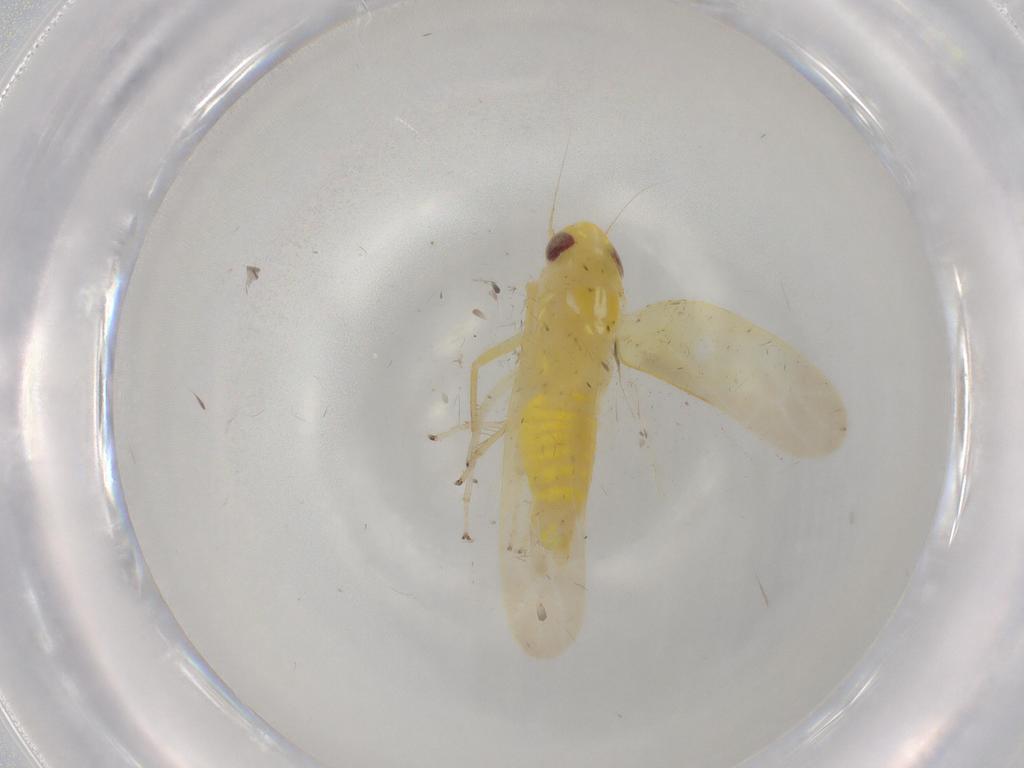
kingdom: Animalia
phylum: Arthropoda
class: Insecta
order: Hemiptera
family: Cicadellidae
